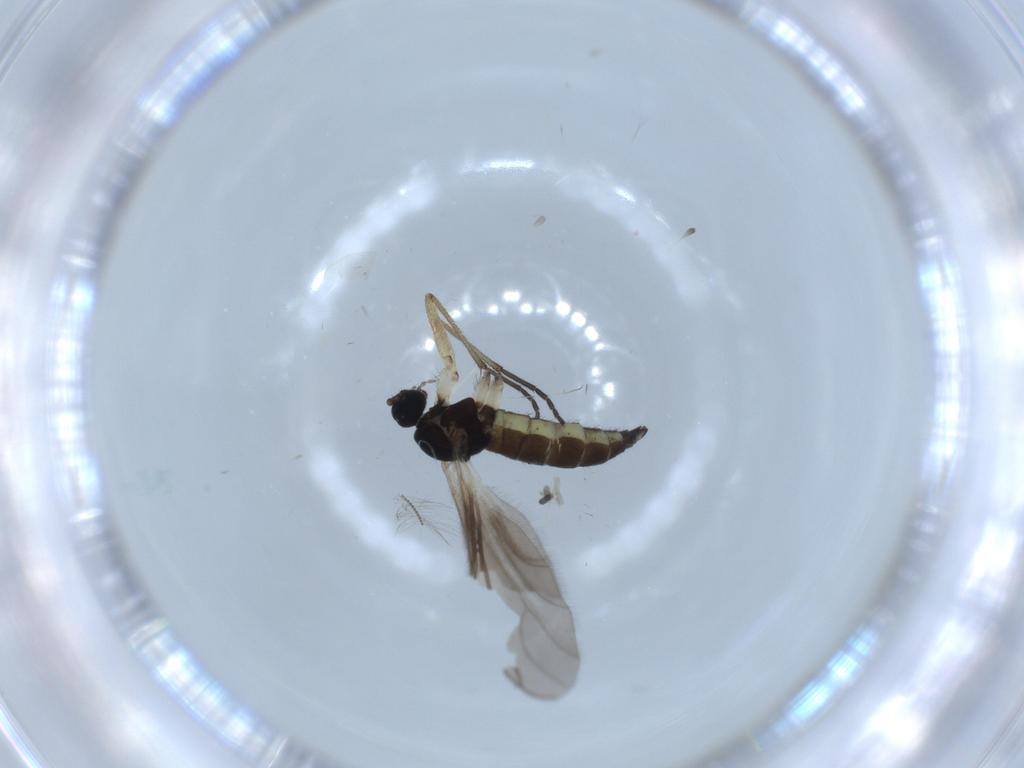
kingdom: Animalia
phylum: Arthropoda
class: Insecta
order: Diptera
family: Sciaridae
